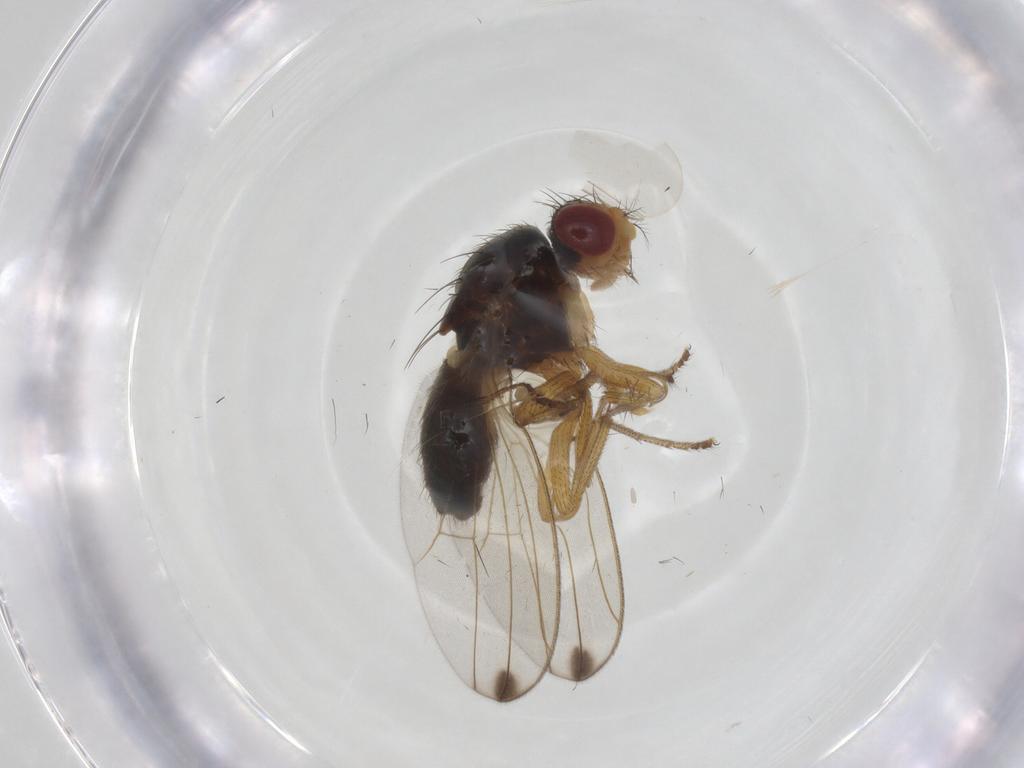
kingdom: Animalia
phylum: Arthropoda
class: Insecta
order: Diptera
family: Drosophilidae
